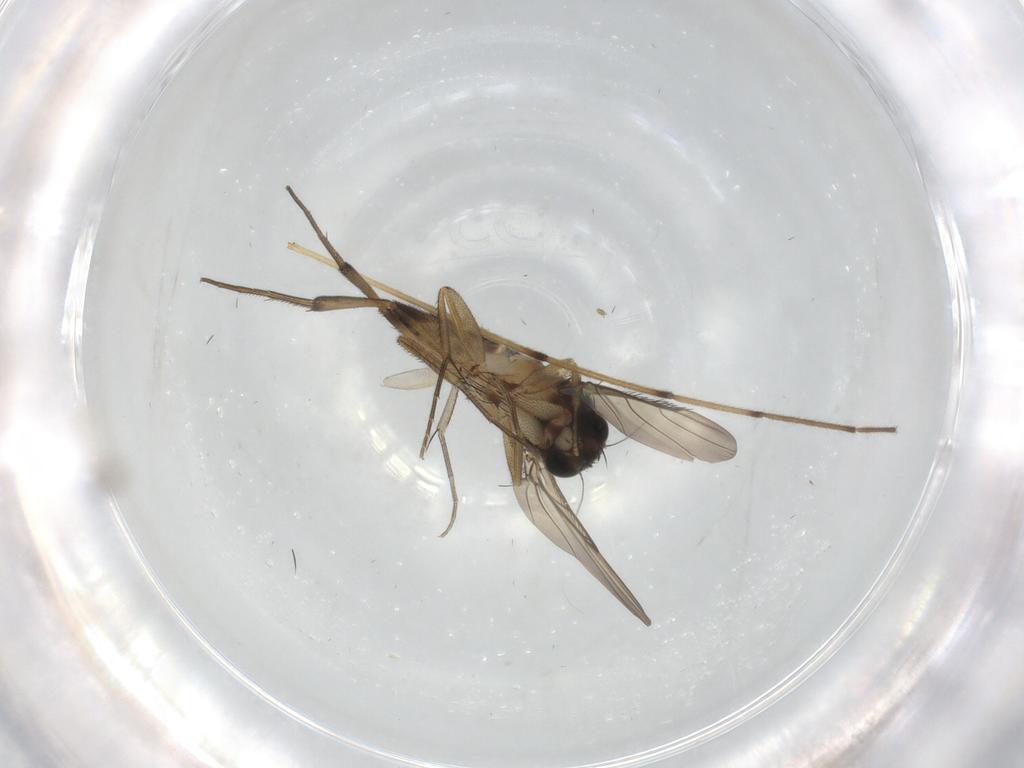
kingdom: Animalia
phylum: Arthropoda
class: Insecta
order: Diptera
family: Phoridae
